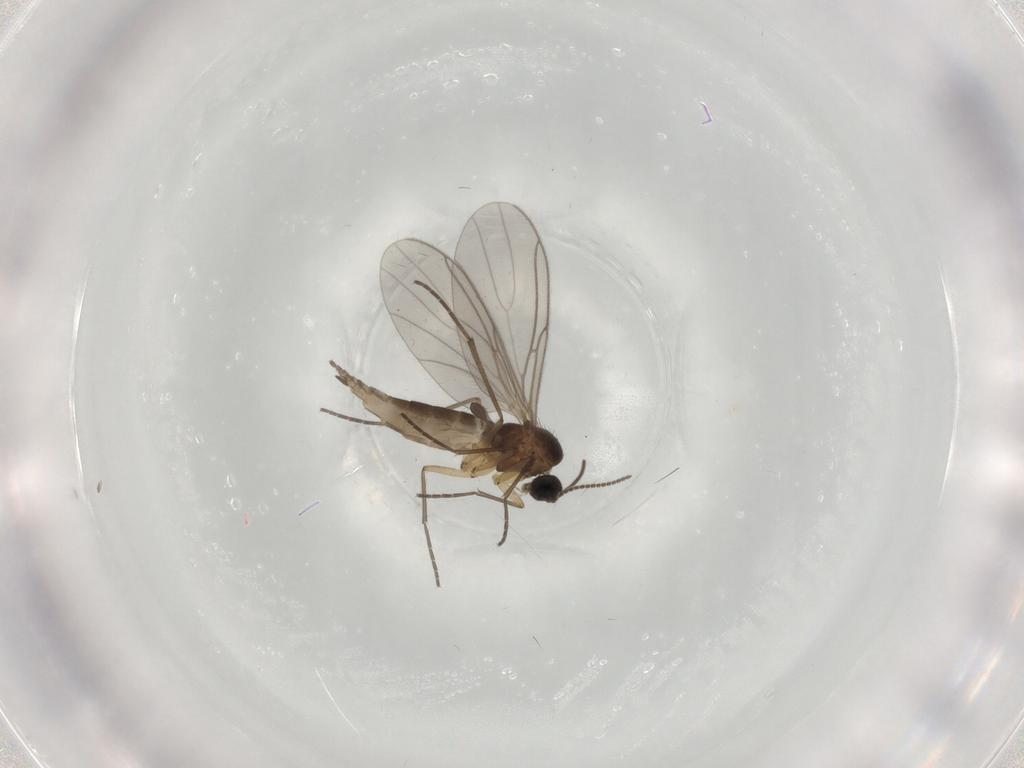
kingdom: Animalia
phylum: Arthropoda
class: Insecta
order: Diptera
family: Sciaridae
